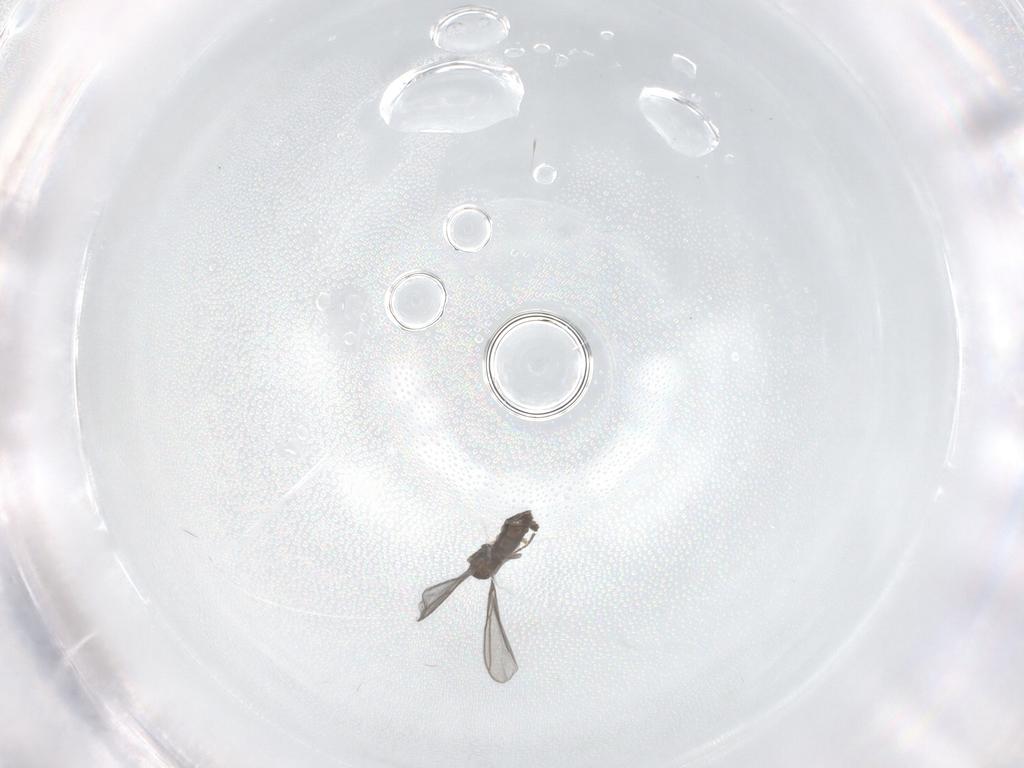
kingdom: Animalia
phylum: Arthropoda
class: Insecta
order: Diptera
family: Sciaridae
